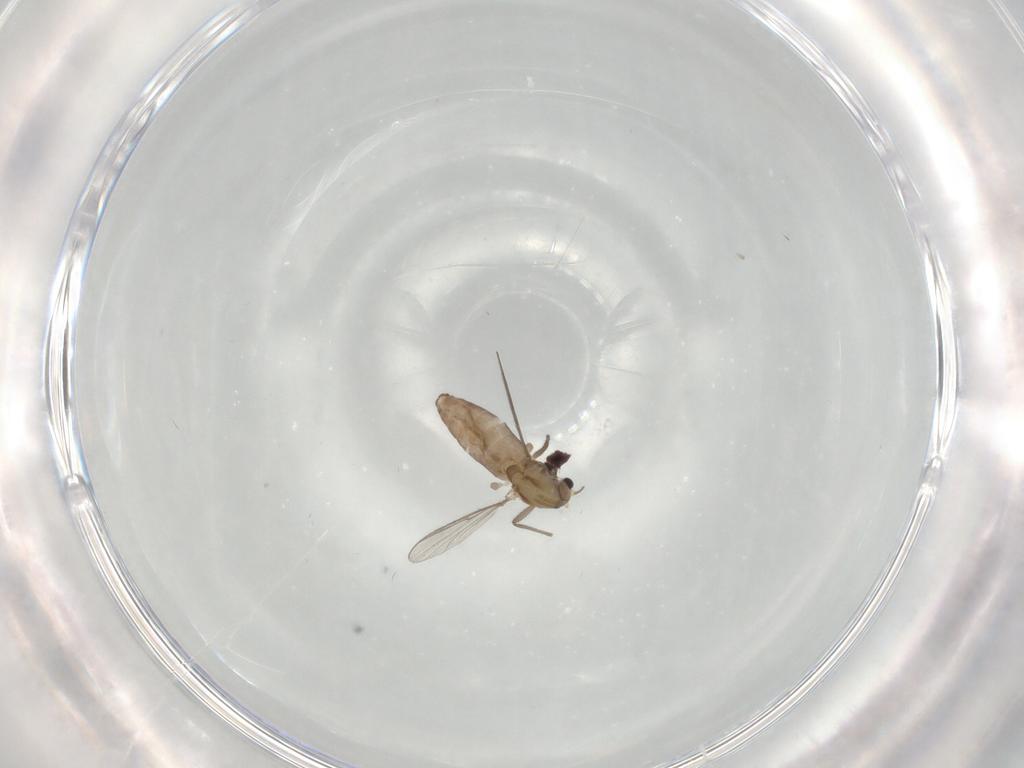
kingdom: Animalia
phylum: Arthropoda
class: Insecta
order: Diptera
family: Chironomidae
